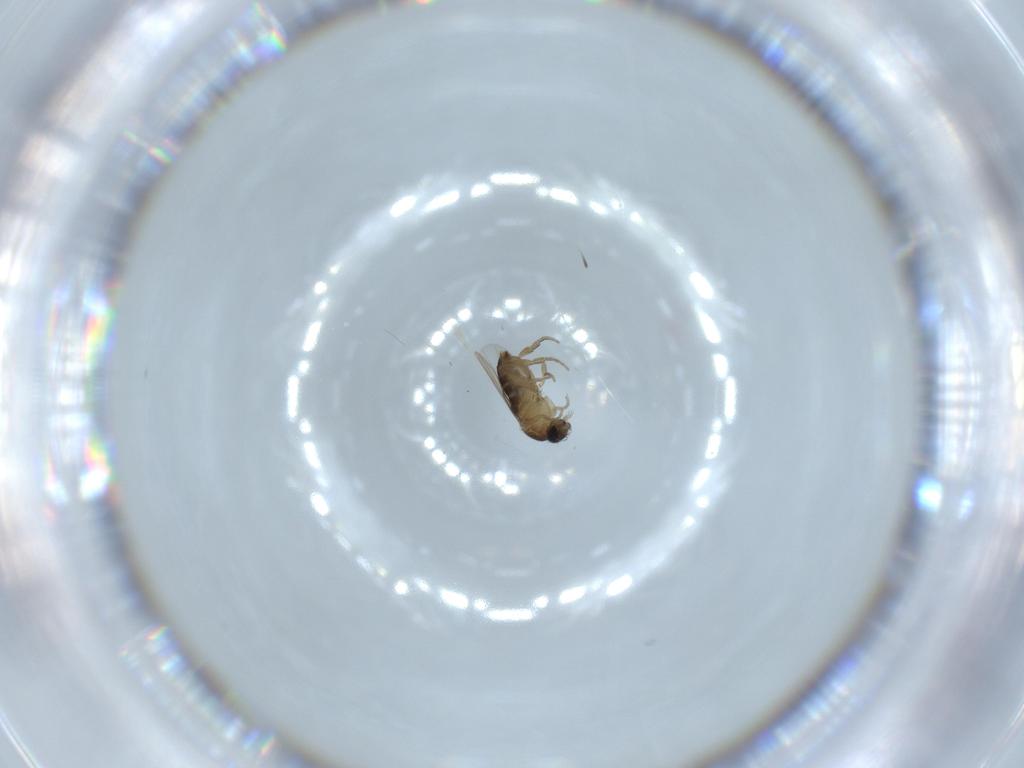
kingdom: Animalia
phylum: Arthropoda
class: Insecta
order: Diptera
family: Phoridae
